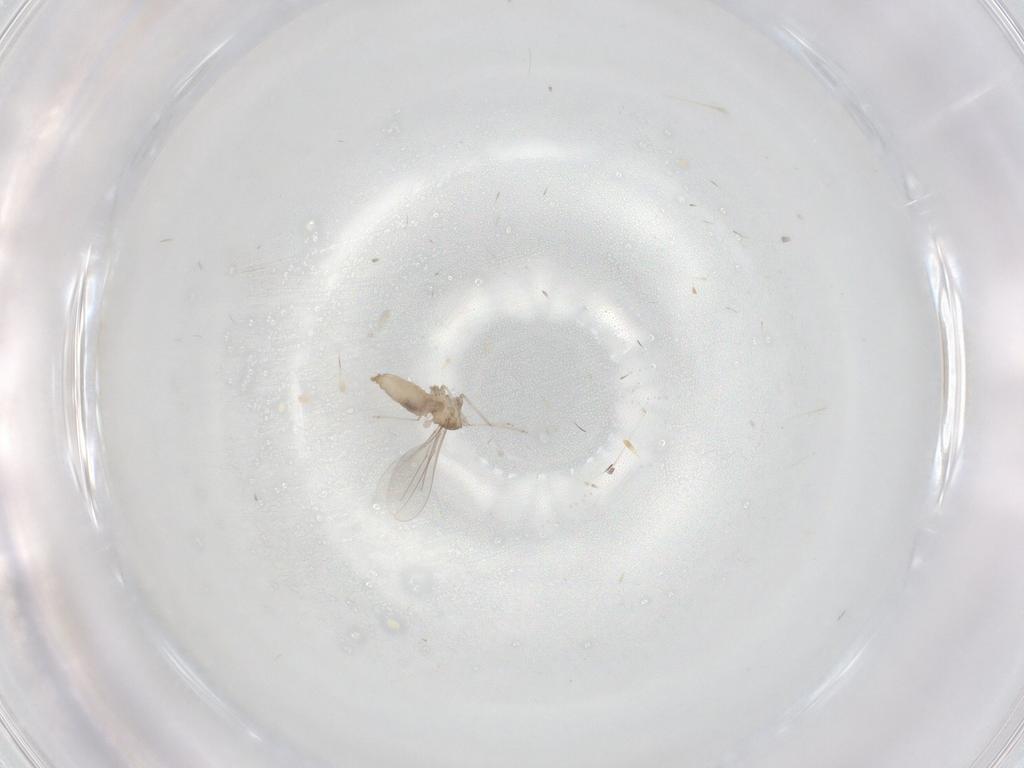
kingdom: Animalia
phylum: Arthropoda
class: Insecta
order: Diptera
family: Cecidomyiidae
